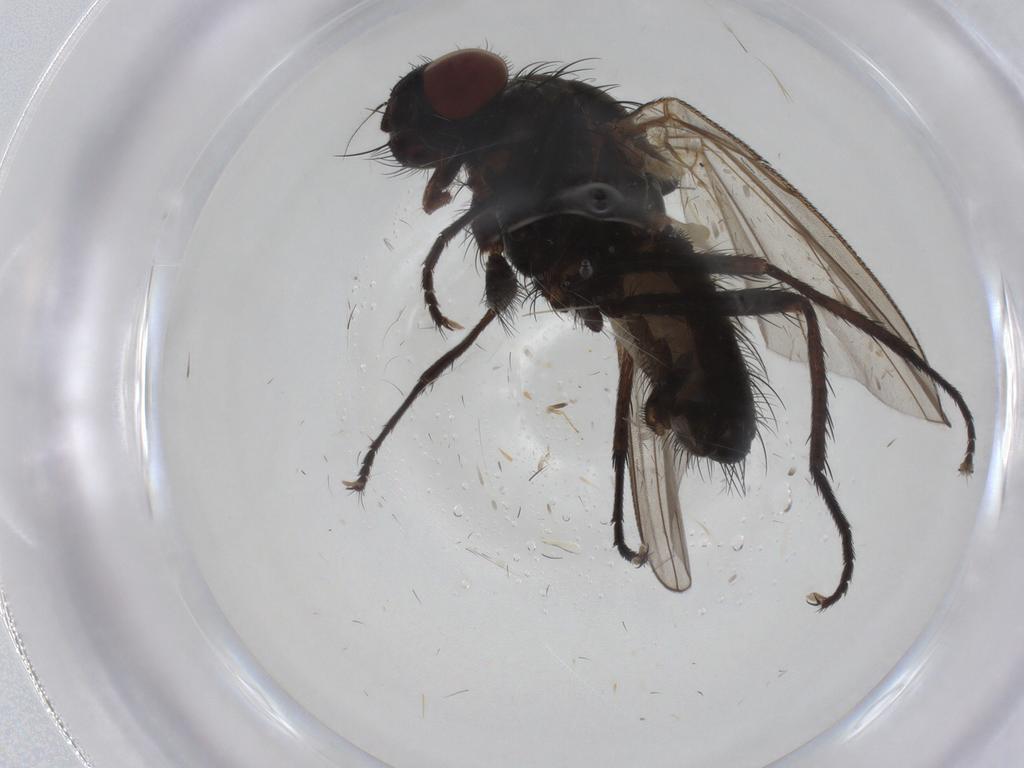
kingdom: Animalia
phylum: Arthropoda
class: Insecta
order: Diptera
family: Anthomyiidae
